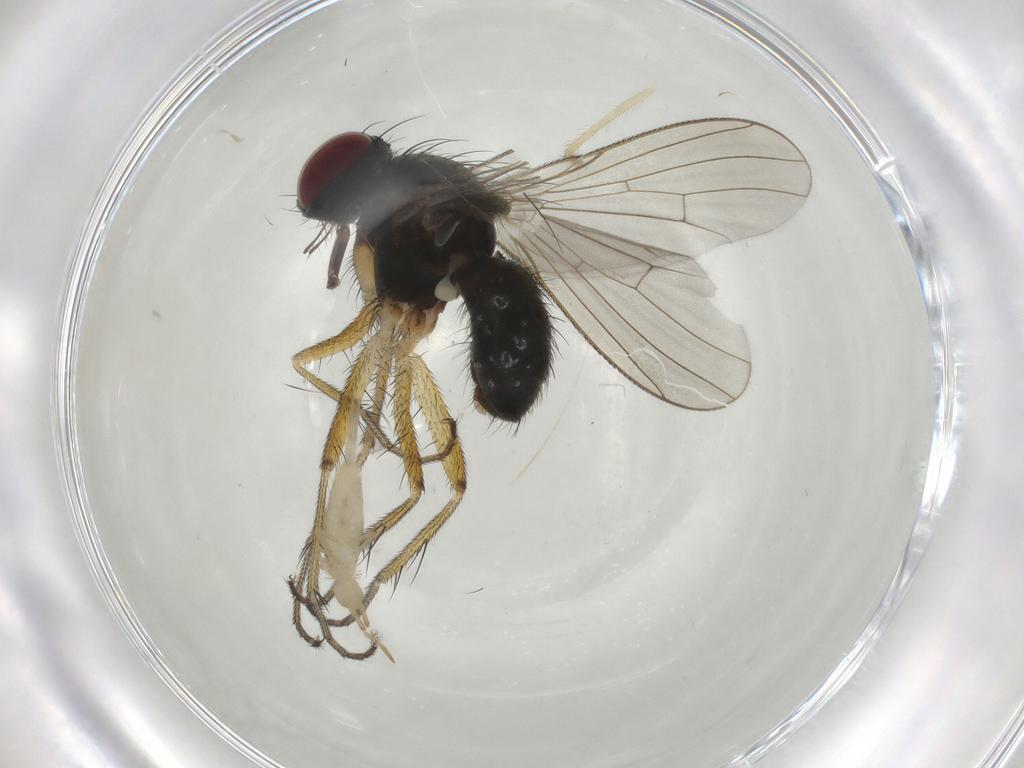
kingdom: Animalia
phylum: Arthropoda
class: Insecta
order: Diptera
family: Muscidae
